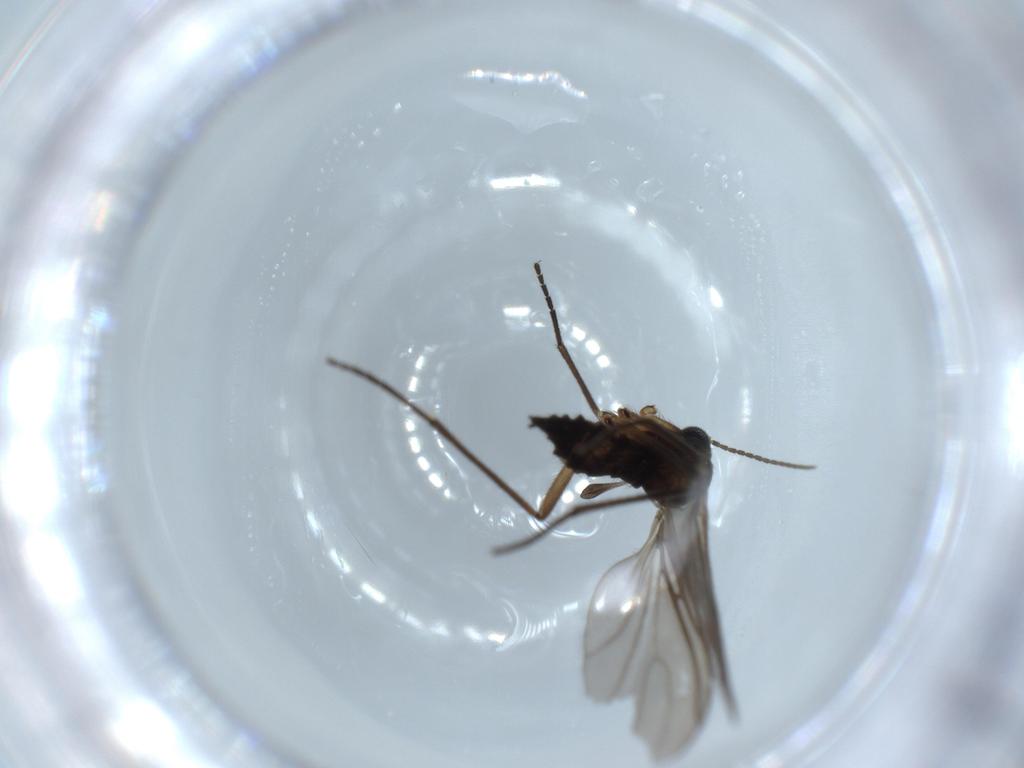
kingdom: Animalia
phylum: Arthropoda
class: Insecta
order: Diptera
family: Sciaridae
